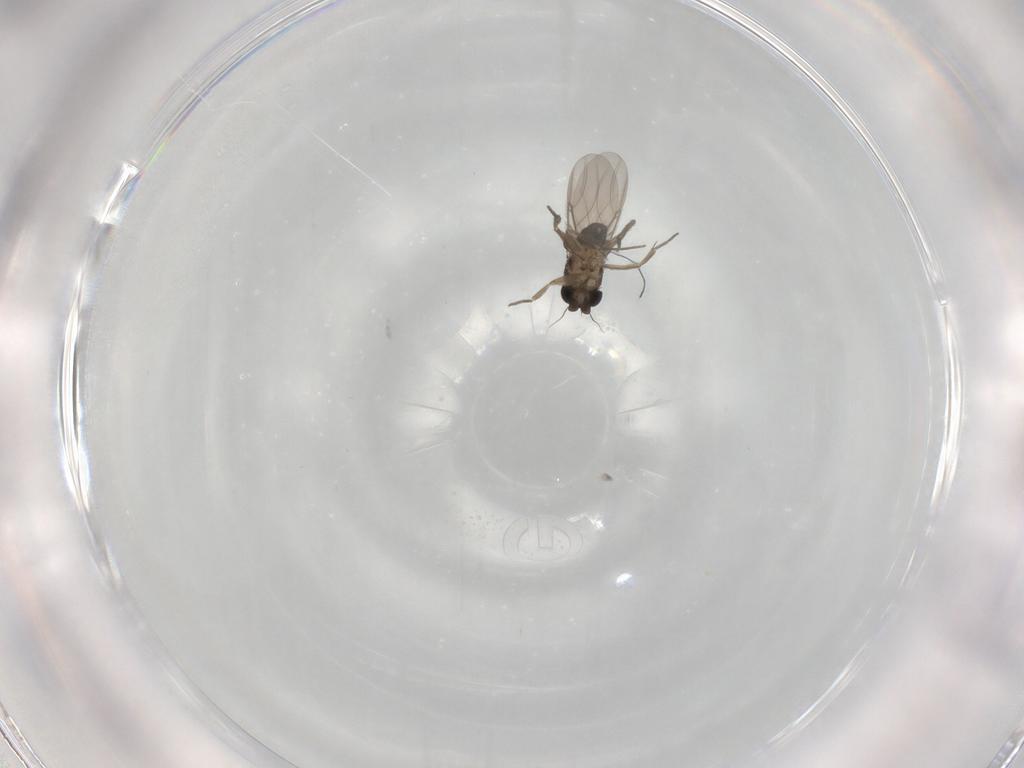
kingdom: Animalia
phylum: Arthropoda
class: Insecta
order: Diptera
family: Phoridae
